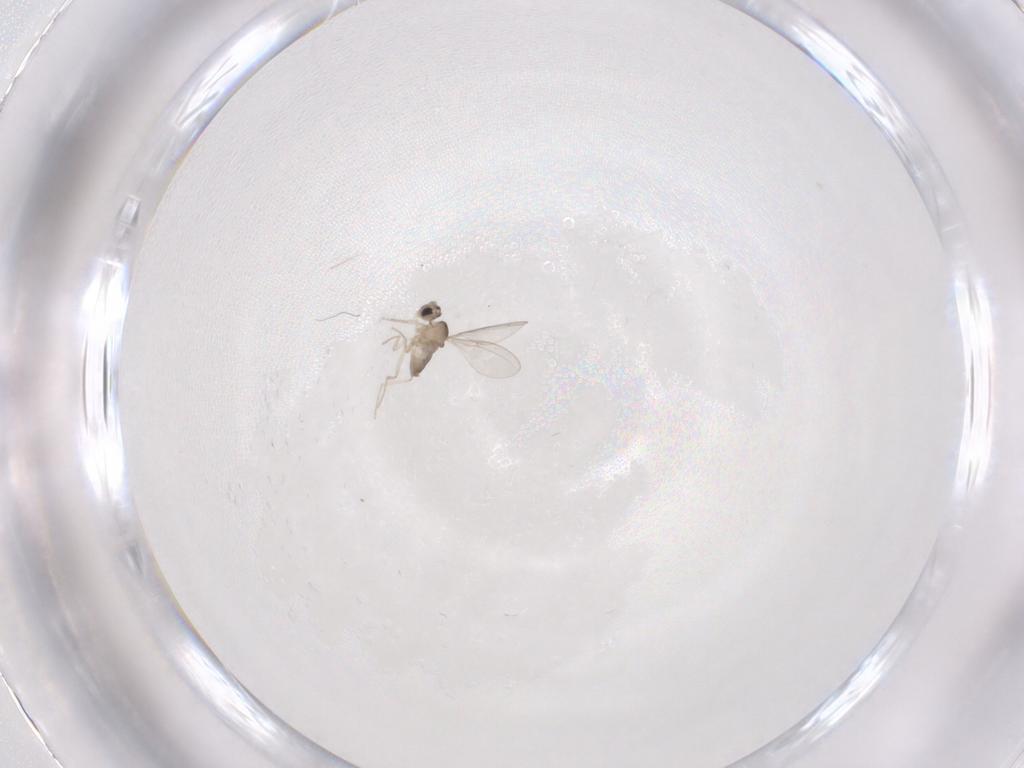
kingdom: Animalia
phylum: Arthropoda
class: Insecta
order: Diptera
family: Cecidomyiidae
